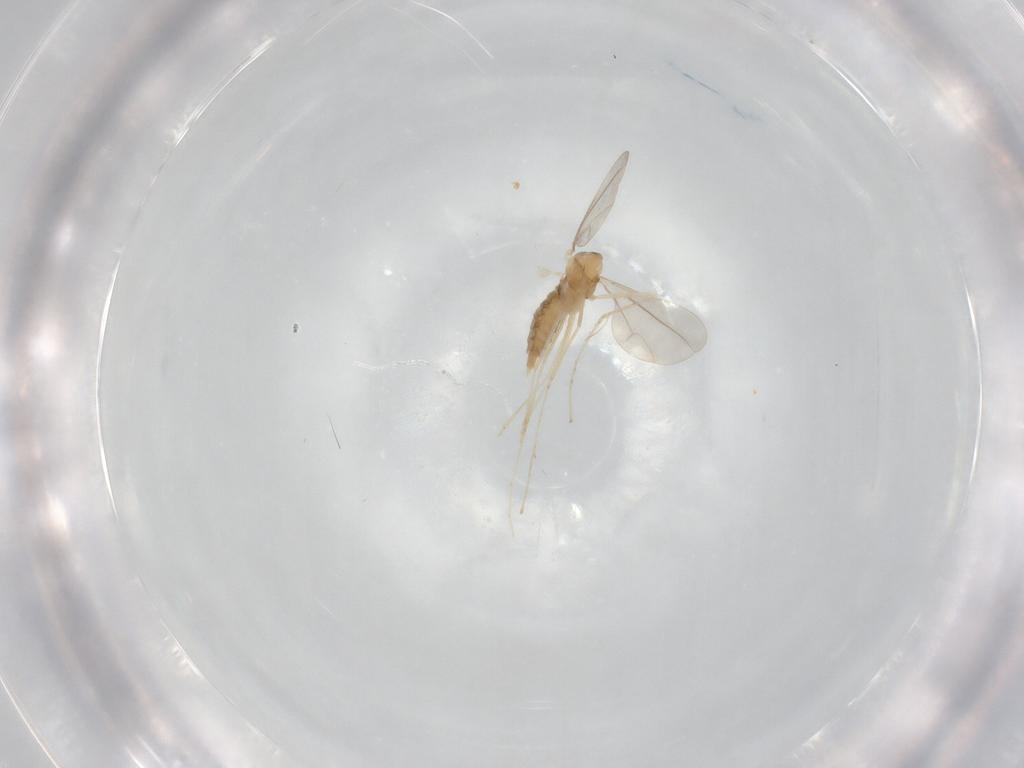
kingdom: Animalia
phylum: Arthropoda
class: Insecta
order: Diptera
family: Cecidomyiidae
